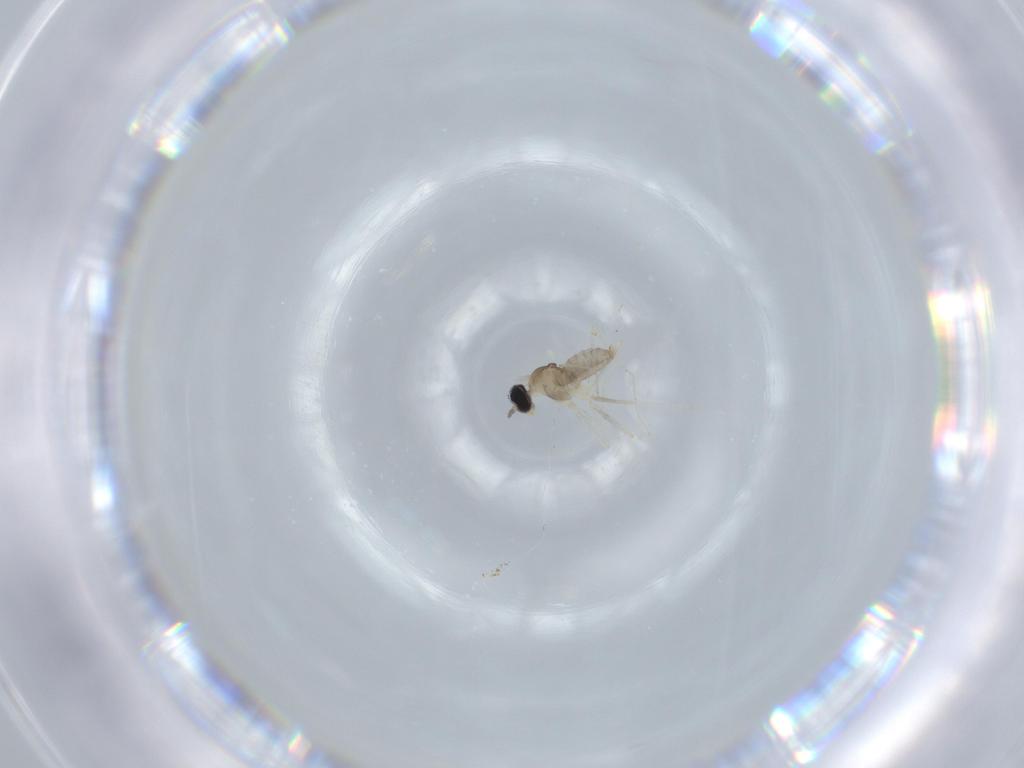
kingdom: Animalia
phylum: Arthropoda
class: Insecta
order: Diptera
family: Cecidomyiidae
